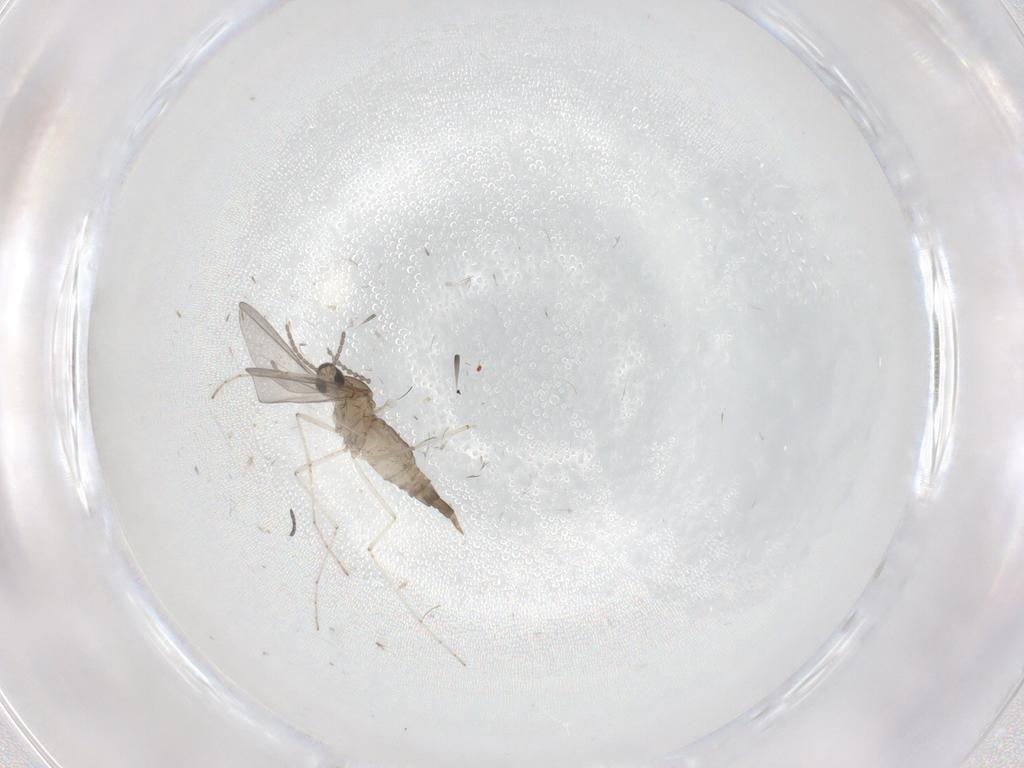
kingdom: Animalia
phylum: Arthropoda
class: Insecta
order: Diptera
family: Cecidomyiidae
